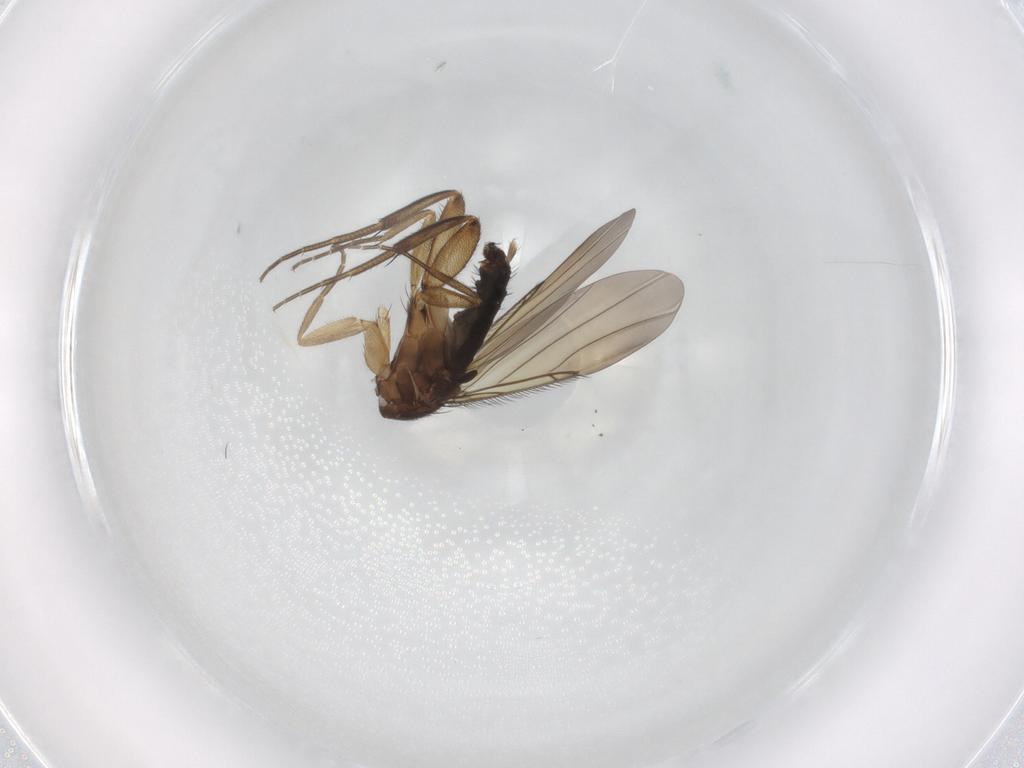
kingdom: Animalia
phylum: Arthropoda
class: Insecta
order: Diptera
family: Phoridae
